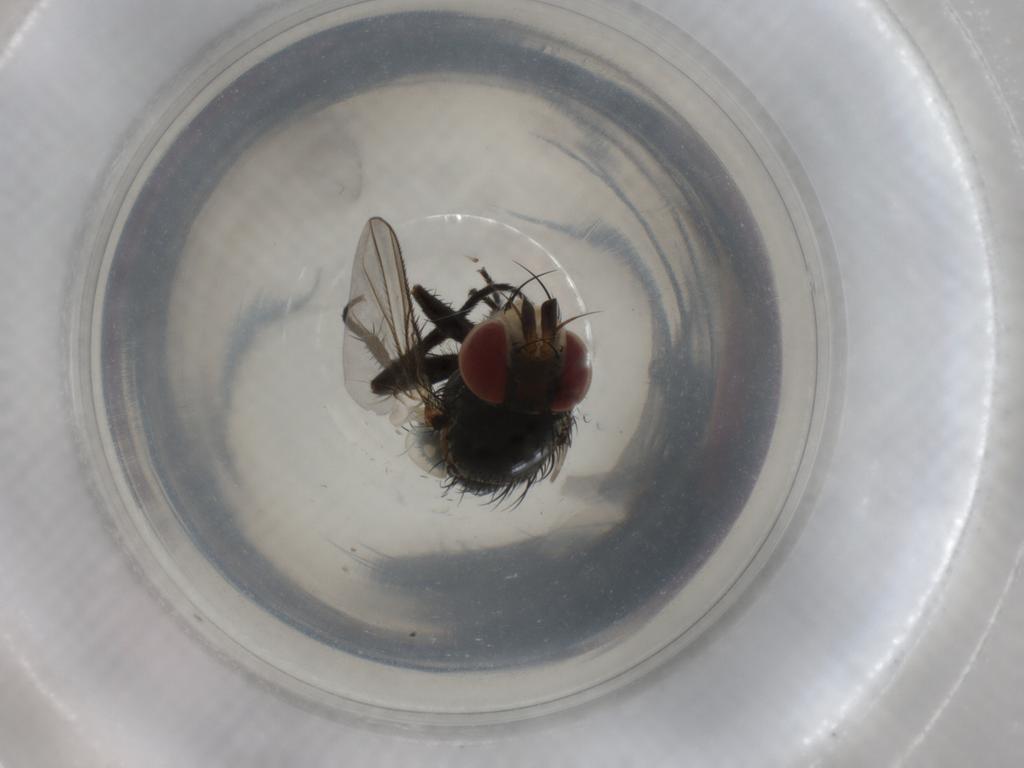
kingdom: Animalia
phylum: Arthropoda
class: Insecta
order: Diptera
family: Tachinidae
